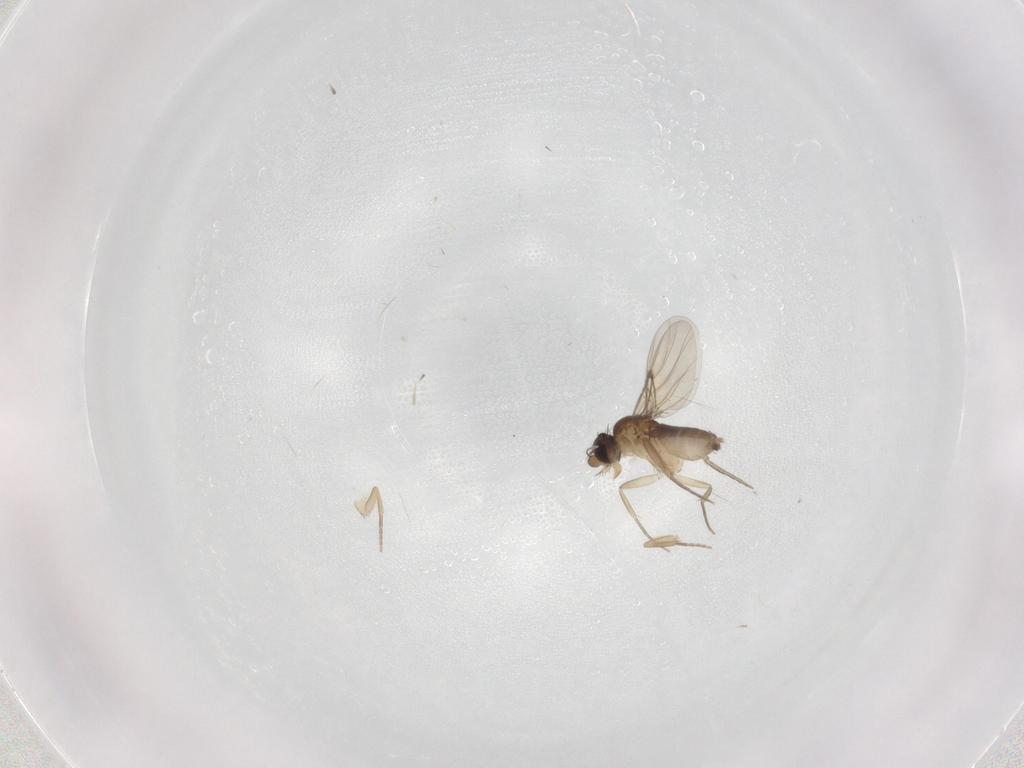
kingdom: Animalia
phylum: Arthropoda
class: Insecta
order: Diptera
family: Phoridae
